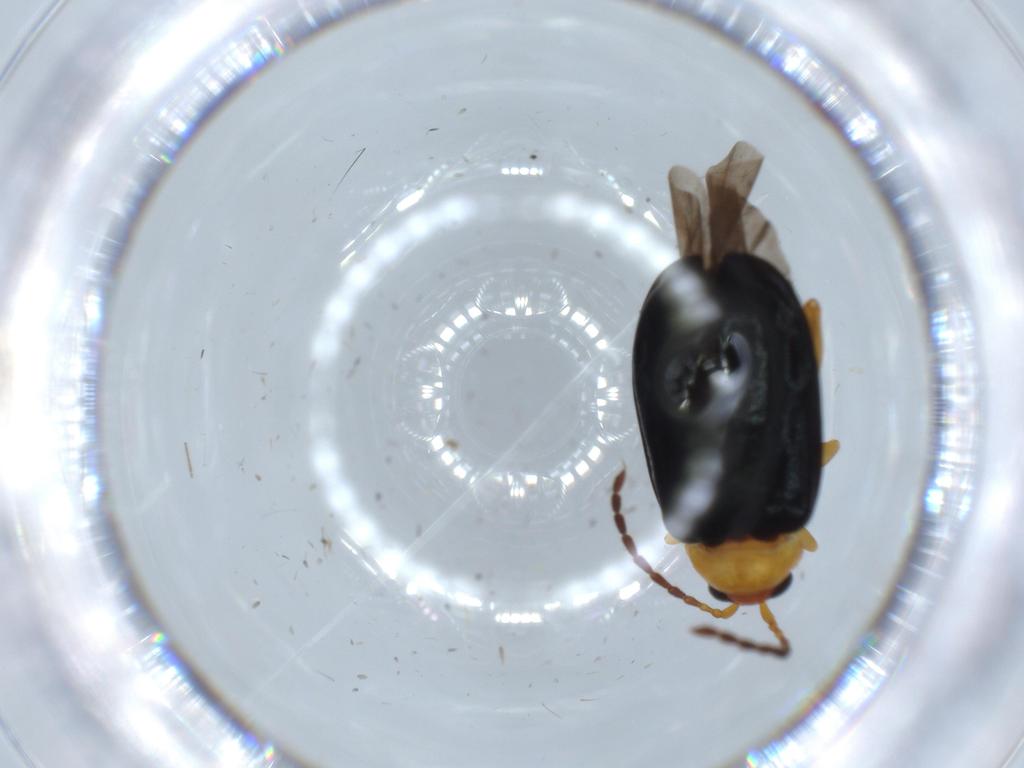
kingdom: Animalia
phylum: Arthropoda
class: Insecta
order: Coleoptera
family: Chrysomelidae
